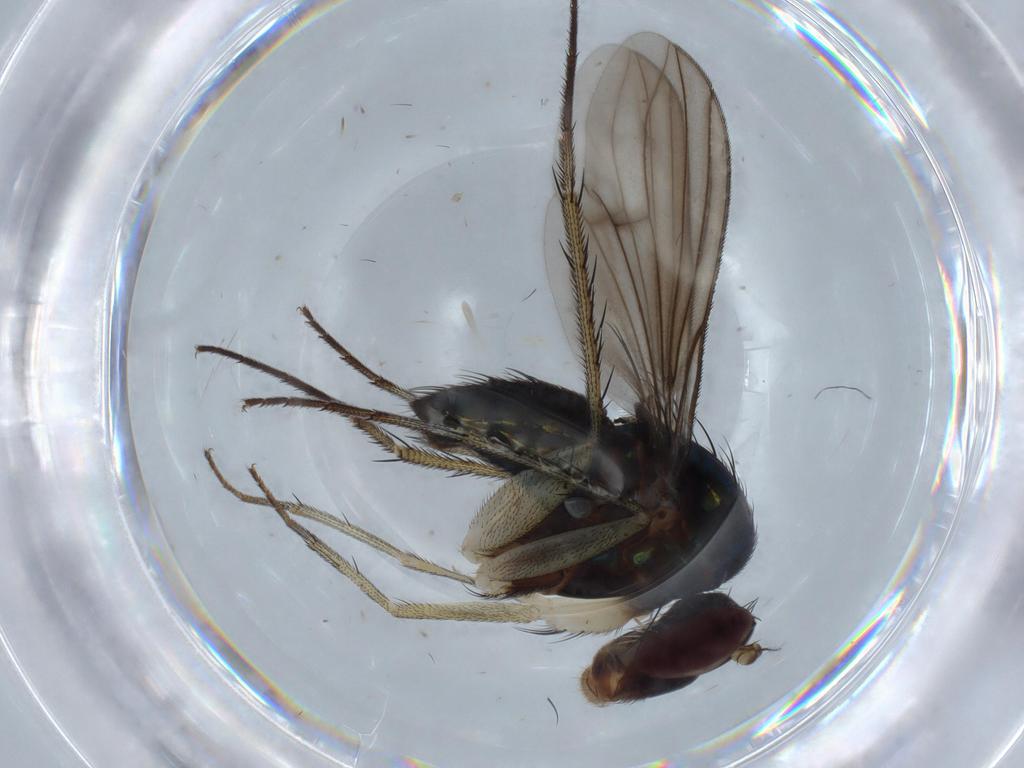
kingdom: Animalia
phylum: Arthropoda
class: Insecta
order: Diptera
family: Dolichopodidae
